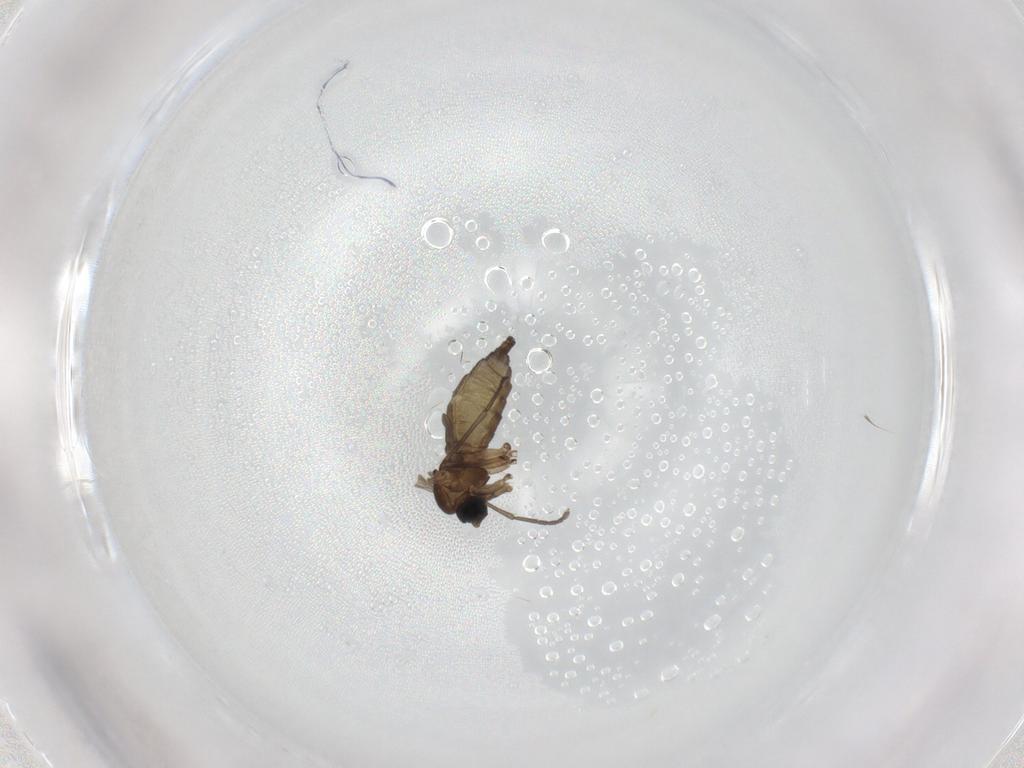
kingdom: Animalia
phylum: Arthropoda
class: Insecta
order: Diptera
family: Sciaridae
